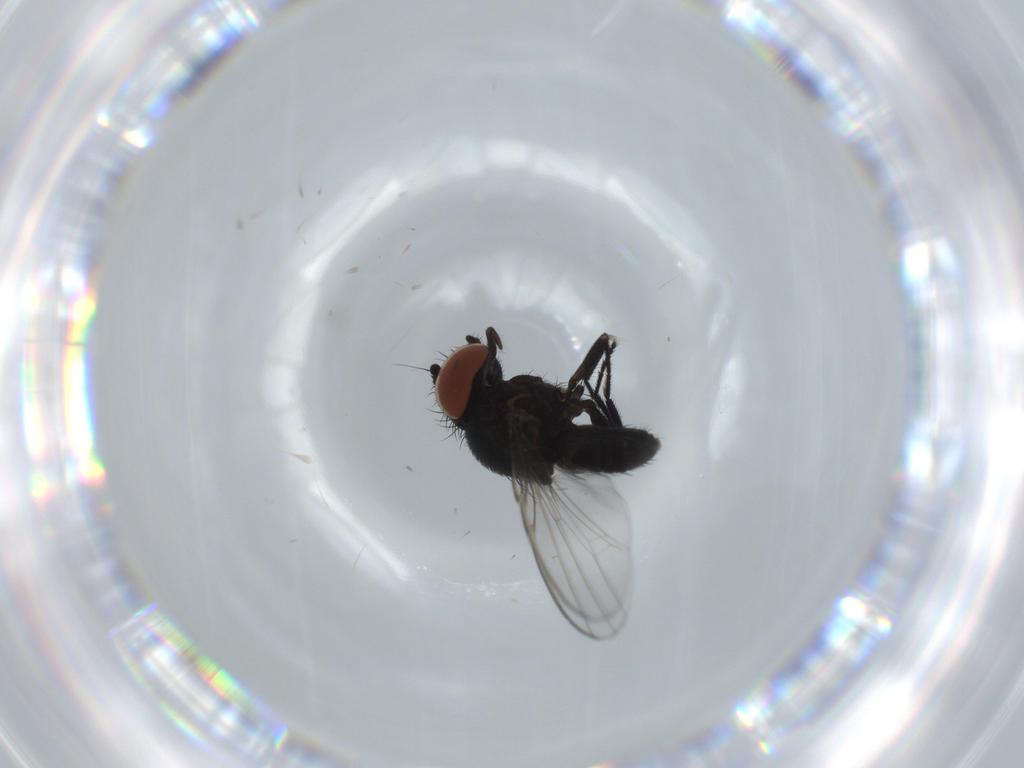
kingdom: Animalia
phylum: Arthropoda
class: Insecta
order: Diptera
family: Milichiidae
